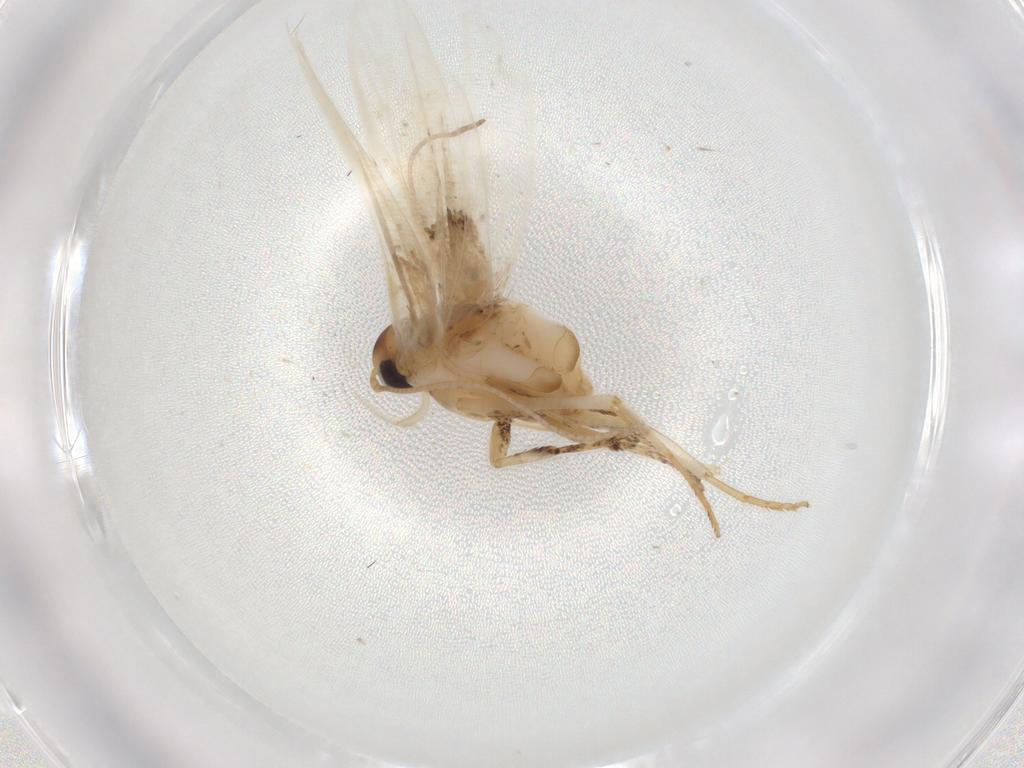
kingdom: Animalia
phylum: Arthropoda
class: Insecta
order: Lepidoptera
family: Gelechiidae
